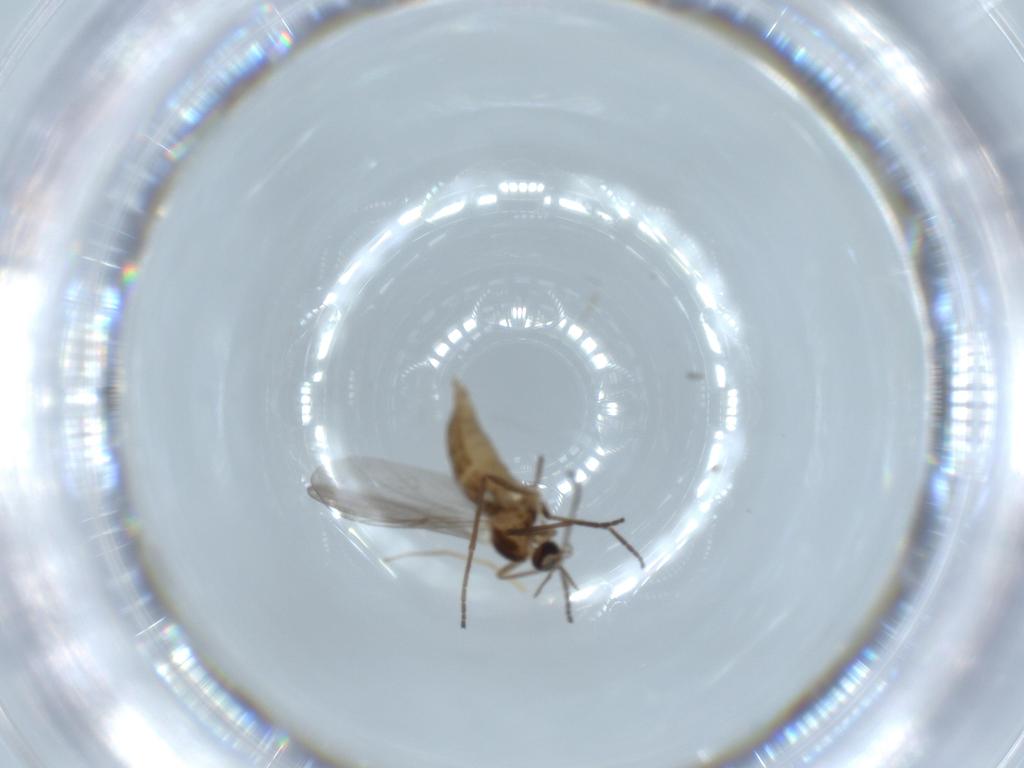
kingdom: Animalia
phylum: Arthropoda
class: Insecta
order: Diptera
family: Cecidomyiidae
